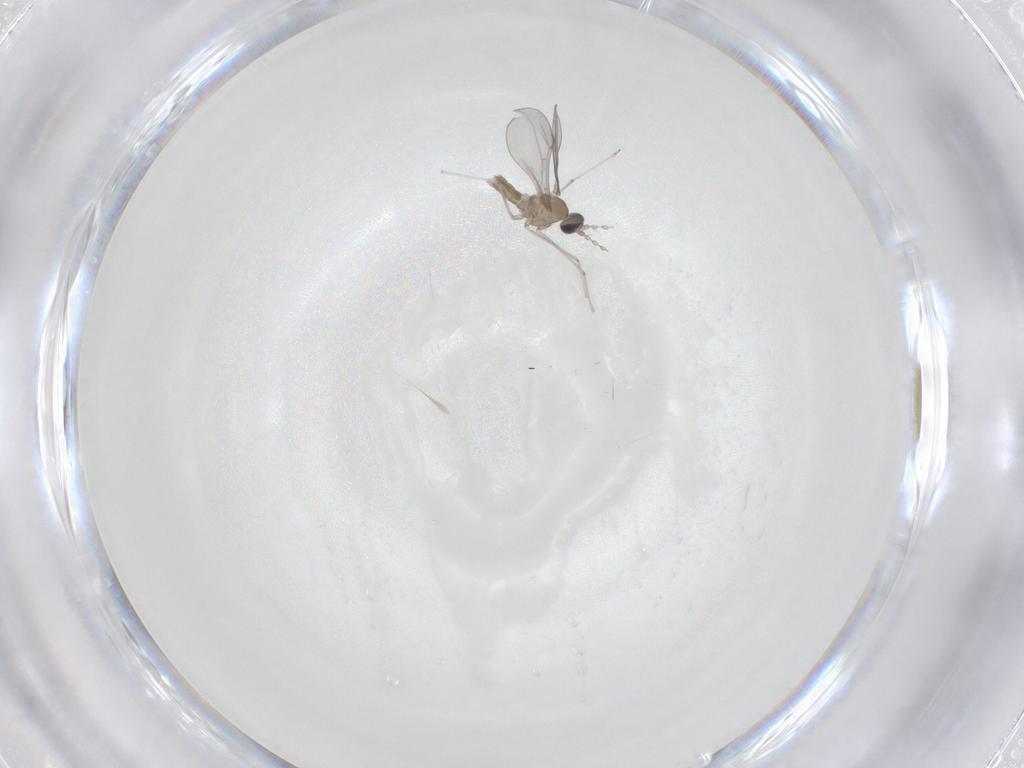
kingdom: Animalia
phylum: Arthropoda
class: Insecta
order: Diptera
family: Cecidomyiidae
